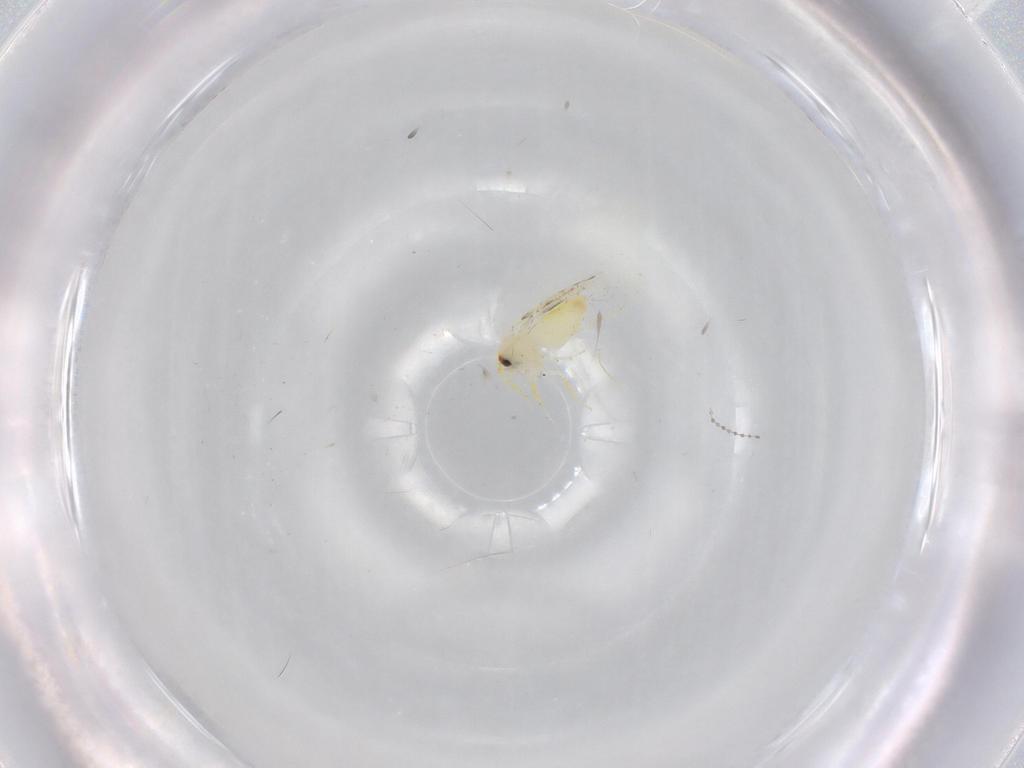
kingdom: Animalia
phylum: Arthropoda
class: Insecta
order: Hemiptera
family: Aleyrodidae
